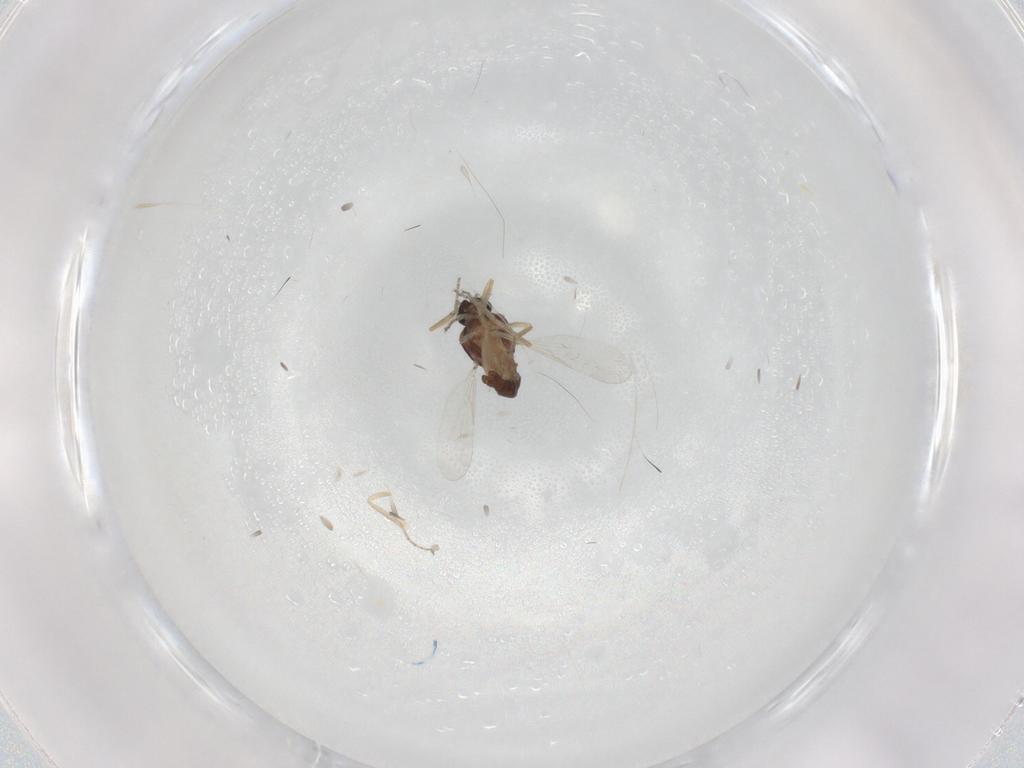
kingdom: Animalia
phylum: Arthropoda
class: Insecta
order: Diptera
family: Ceratopogonidae
